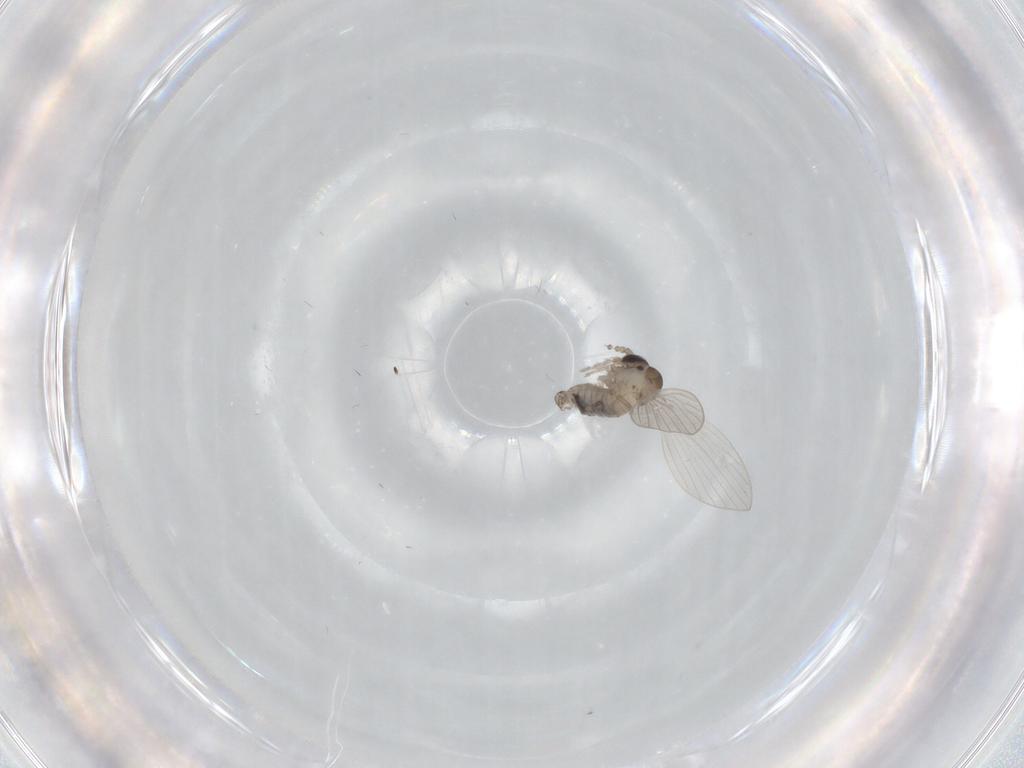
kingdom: Animalia
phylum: Arthropoda
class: Insecta
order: Diptera
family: Psychodidae
